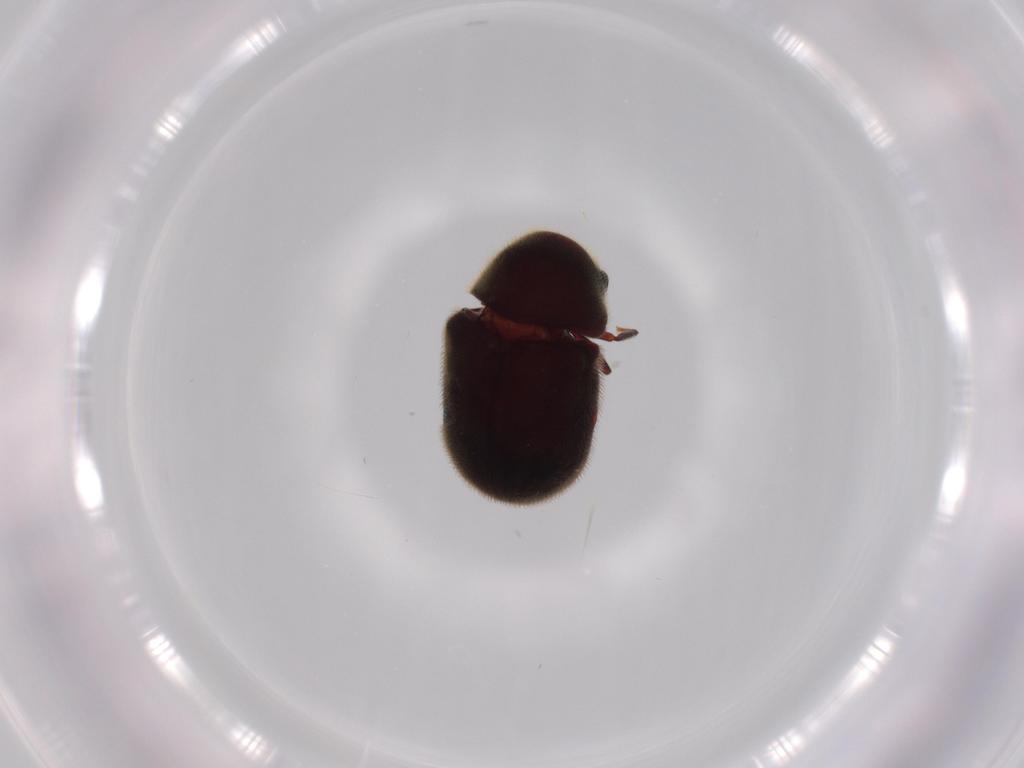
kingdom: Animalia
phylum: Arthropoda
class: Insecta
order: Coleoptera
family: Ptinidae
